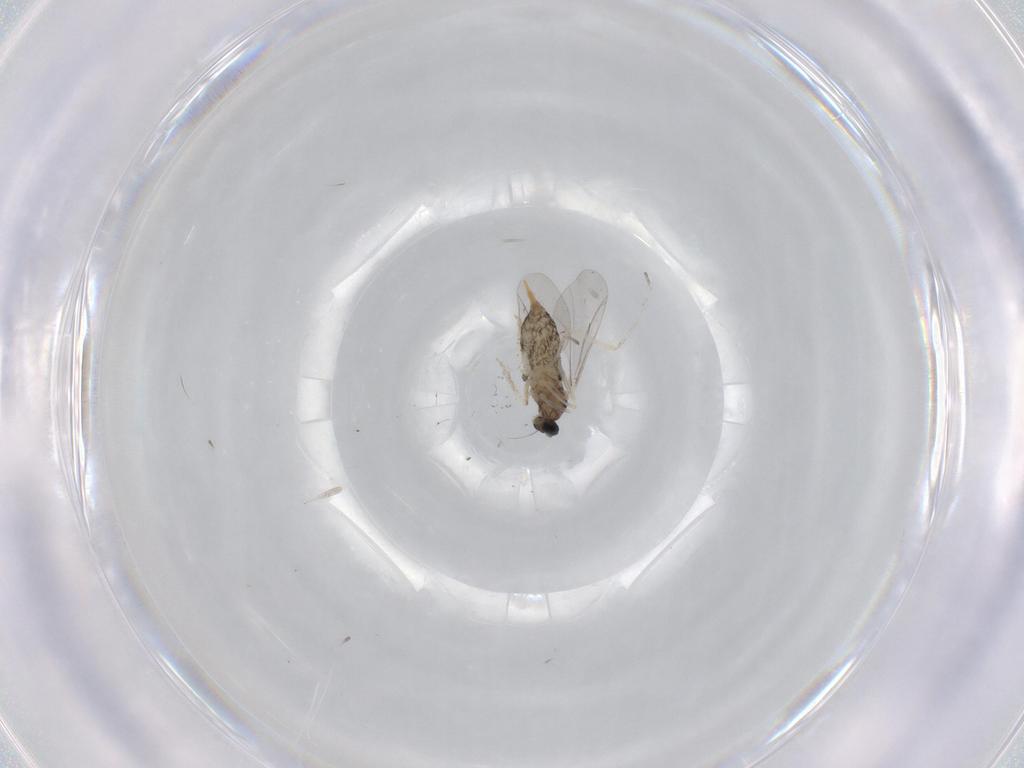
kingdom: Animalia
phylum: Arthropoda
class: Insecta
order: Diptera
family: Cecidomyiidae
